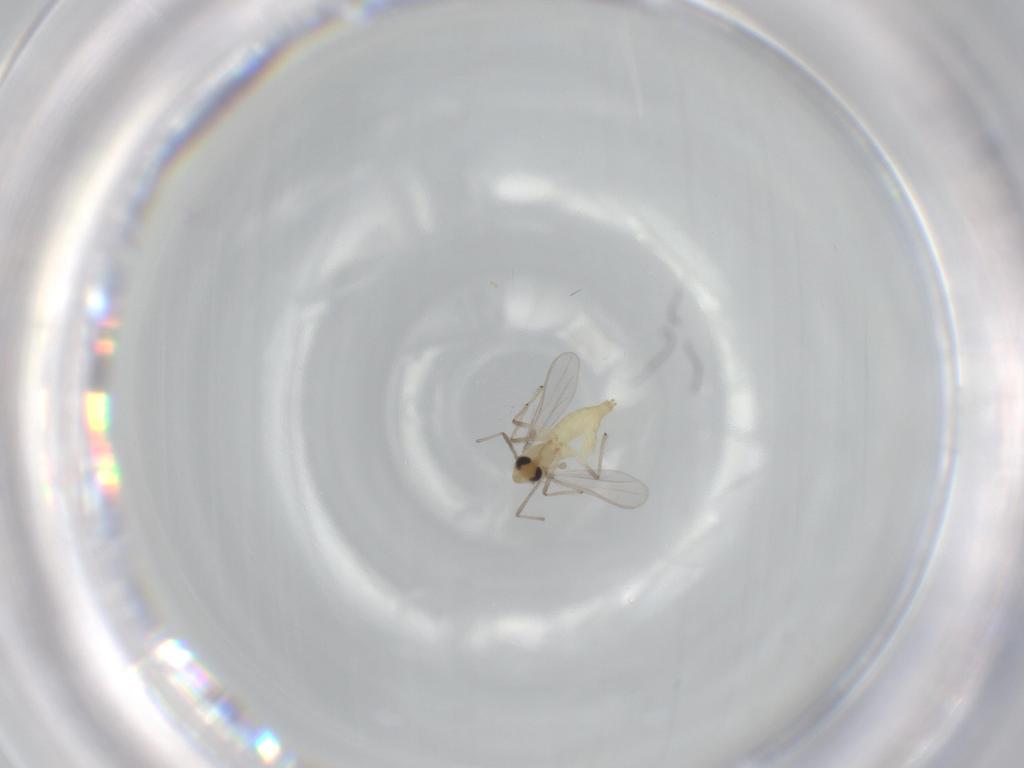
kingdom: Animalia
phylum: Arthropoda
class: Insecta
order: Diptera
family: Chironomidae
